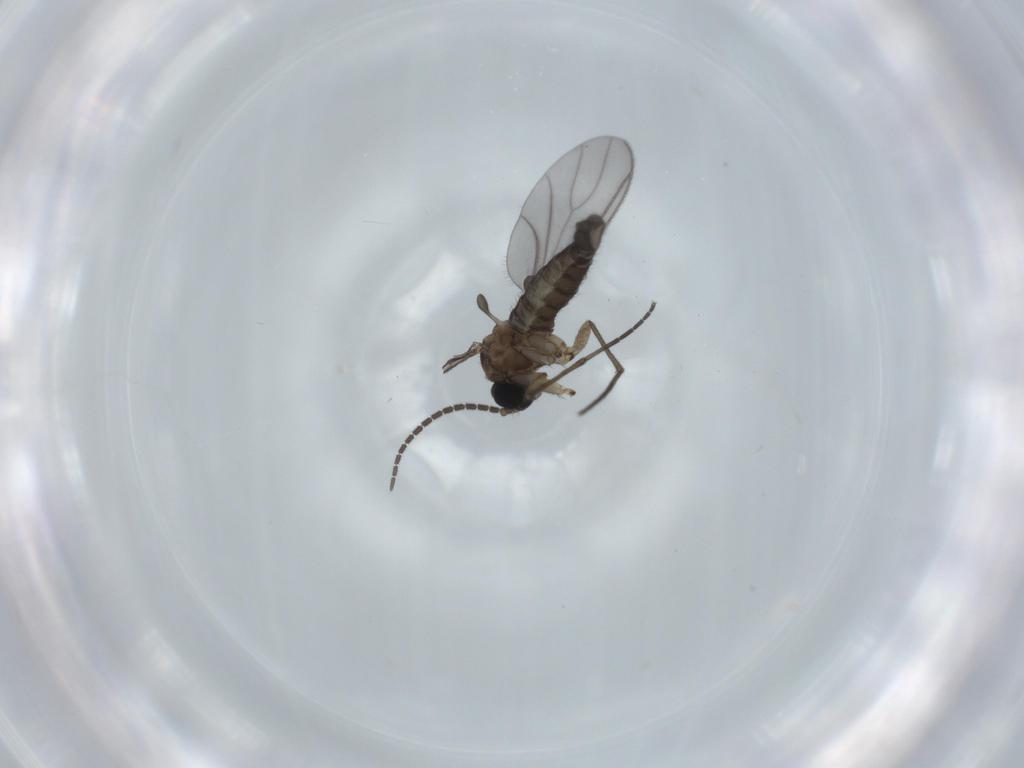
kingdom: Animalia
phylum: Arthropoda
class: Insecta
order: Diptera
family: Sciaridae
